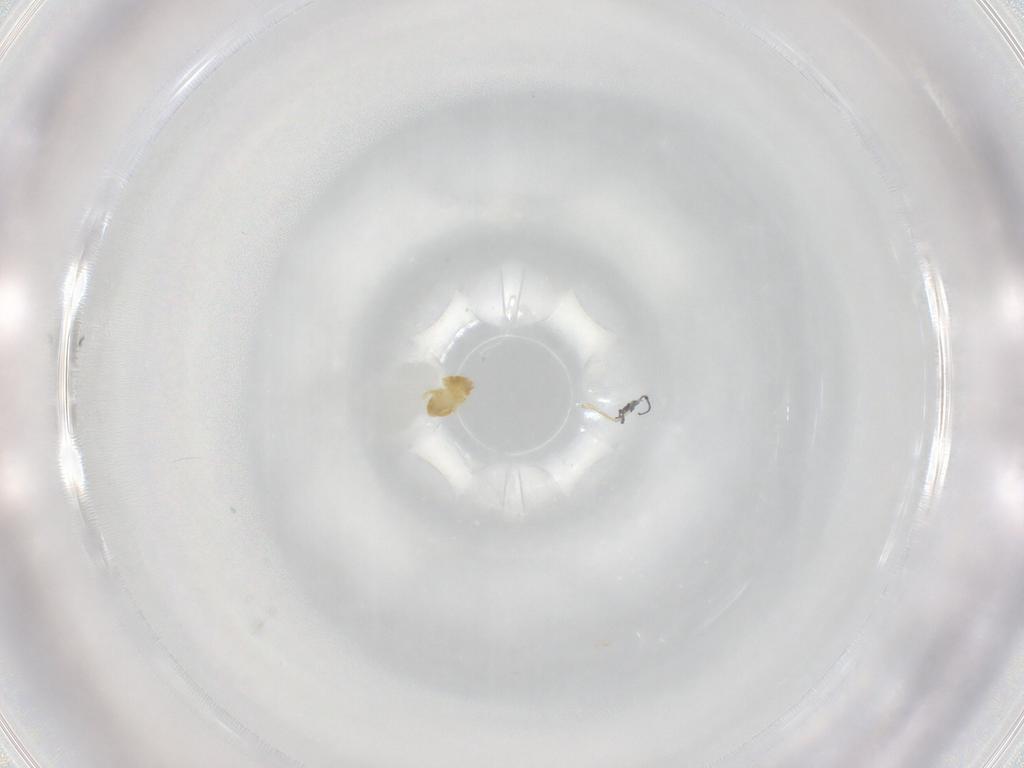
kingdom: Animalia
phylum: Arthropoda
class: Arachnida
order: Trombidiformes
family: Eupodidae
